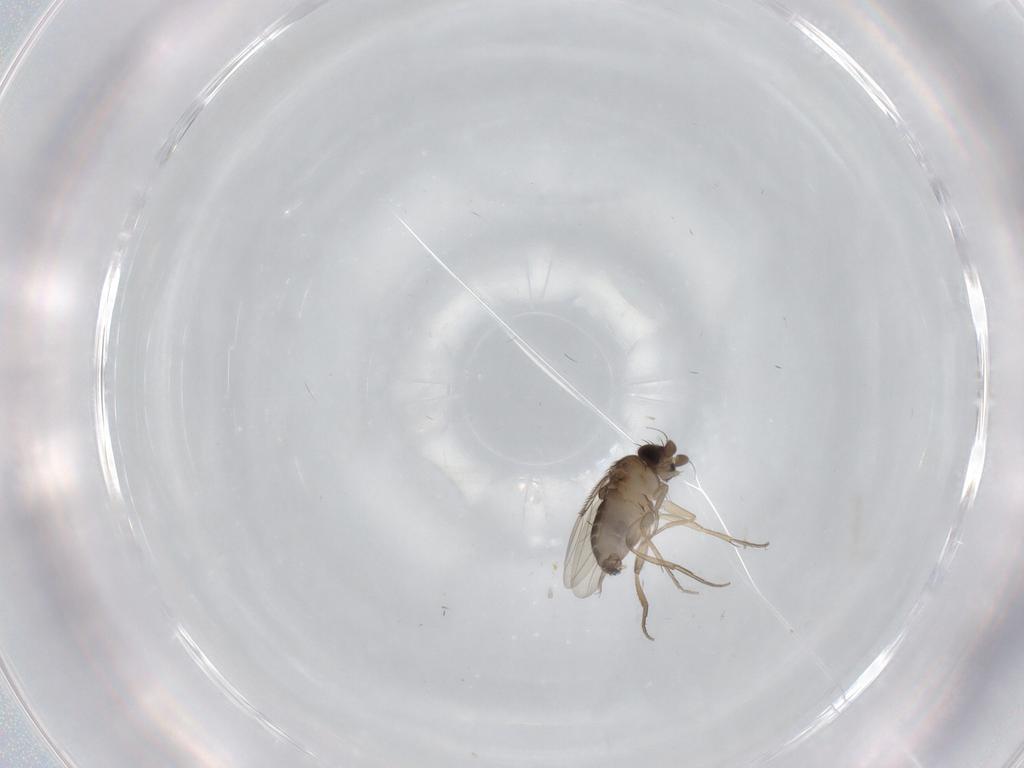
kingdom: Animalia
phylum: Arthropoda
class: Insecta
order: Diptera
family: Phoridae
